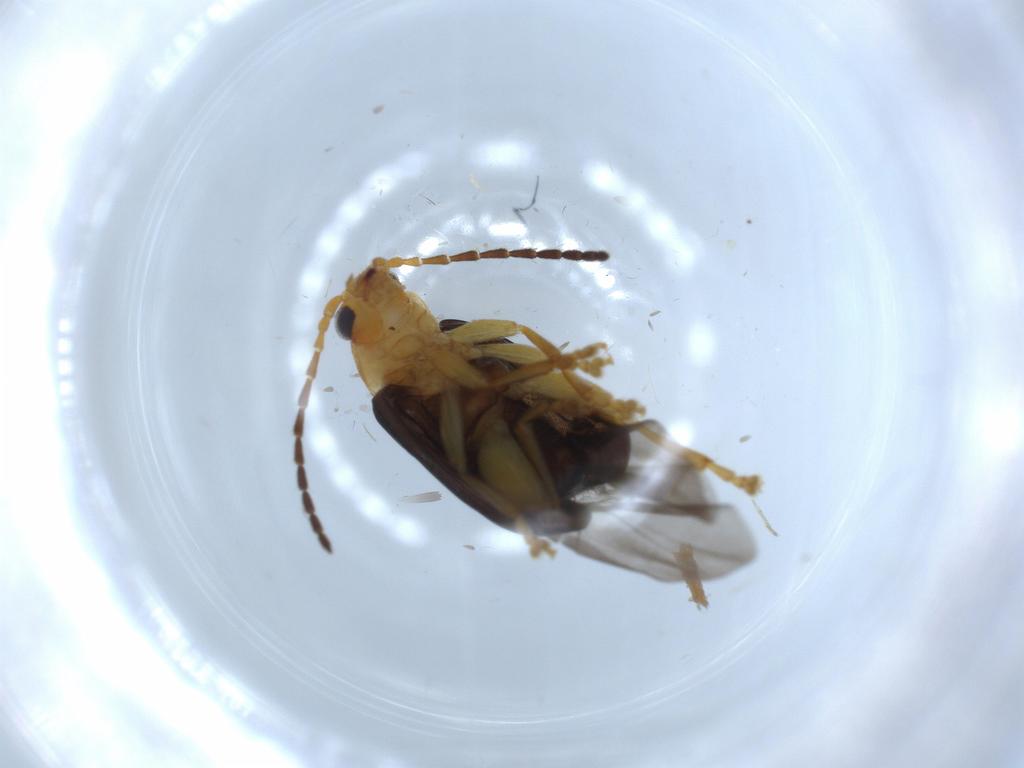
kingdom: Animalia
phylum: Arthropoda
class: Insecta
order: Coleoptera
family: Chrysomelidae
